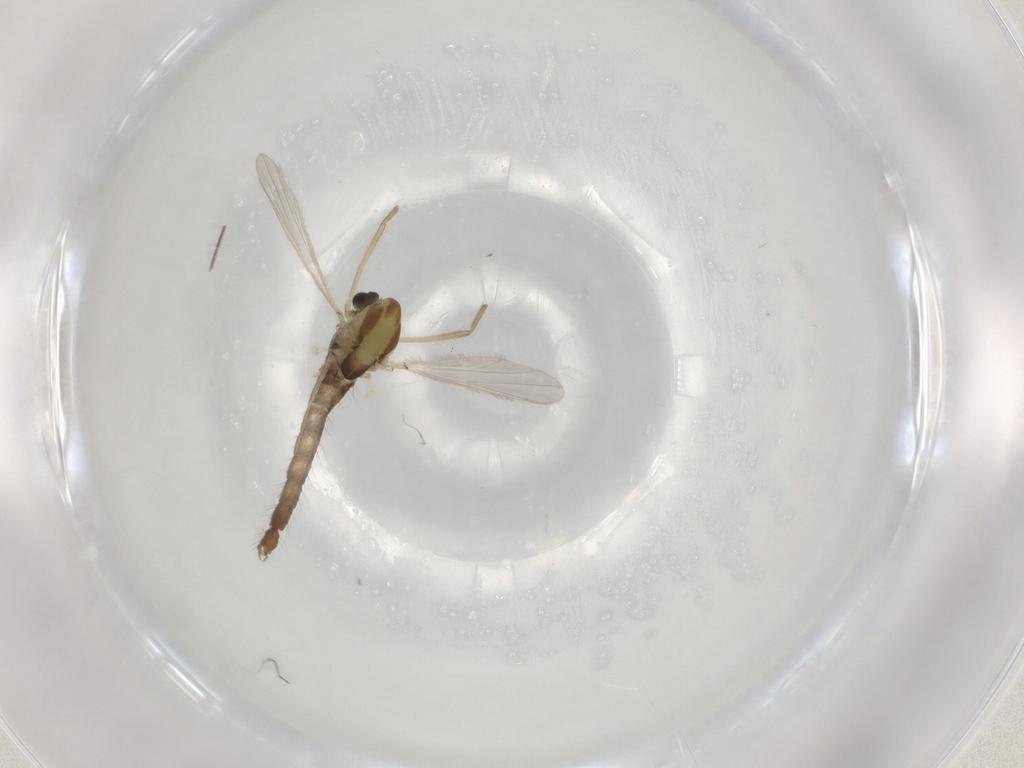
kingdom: Animalia
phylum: Arthropoda
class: Insecta
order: Diptera
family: Chironomidae
